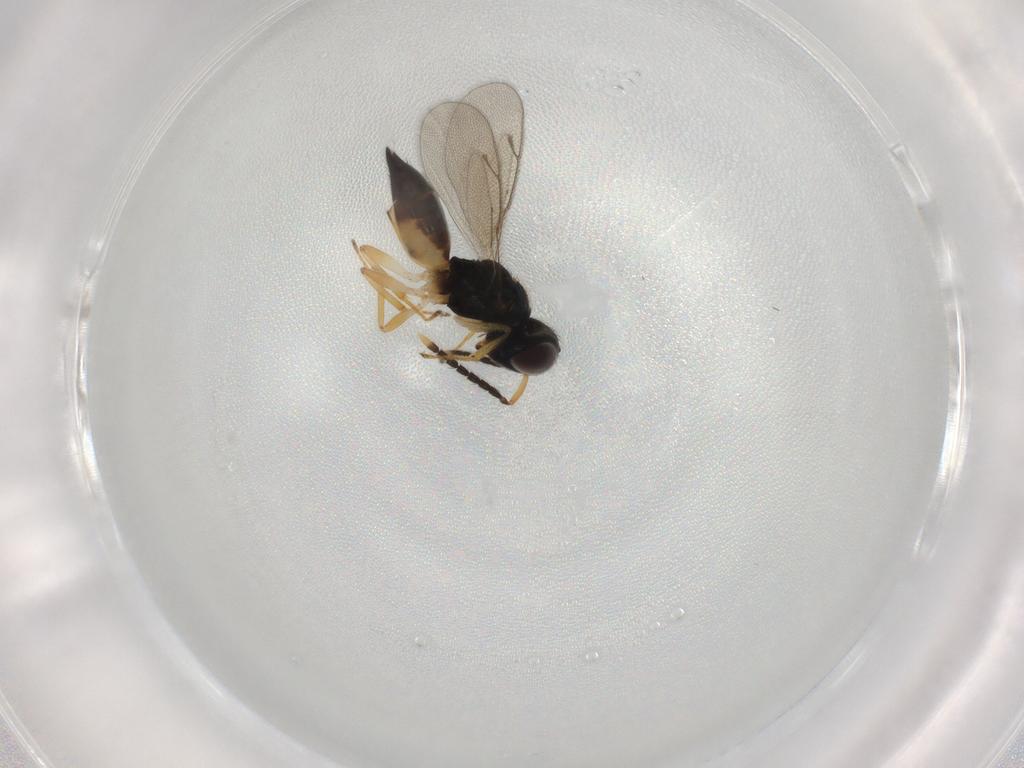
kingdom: Animalia
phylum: Arthropoda
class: Insecta
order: Hymenoptera
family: Pteromalidae
